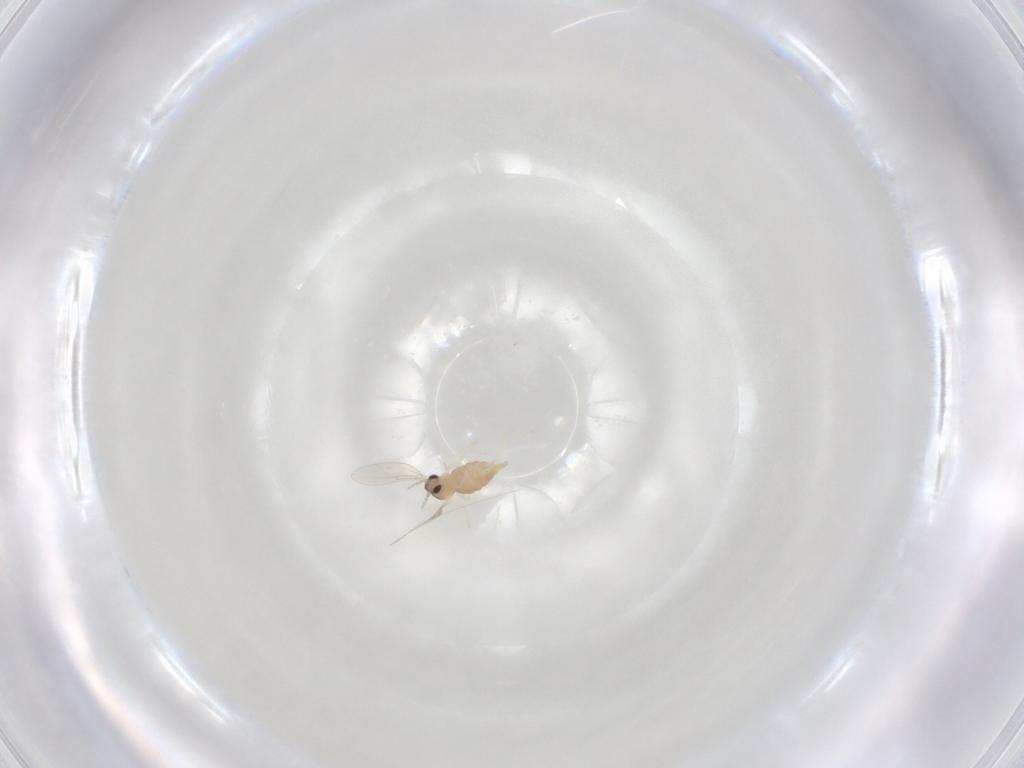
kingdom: Animalia
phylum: Arthropoda
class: Insecta
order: Diptera
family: Cecidomyiidae
